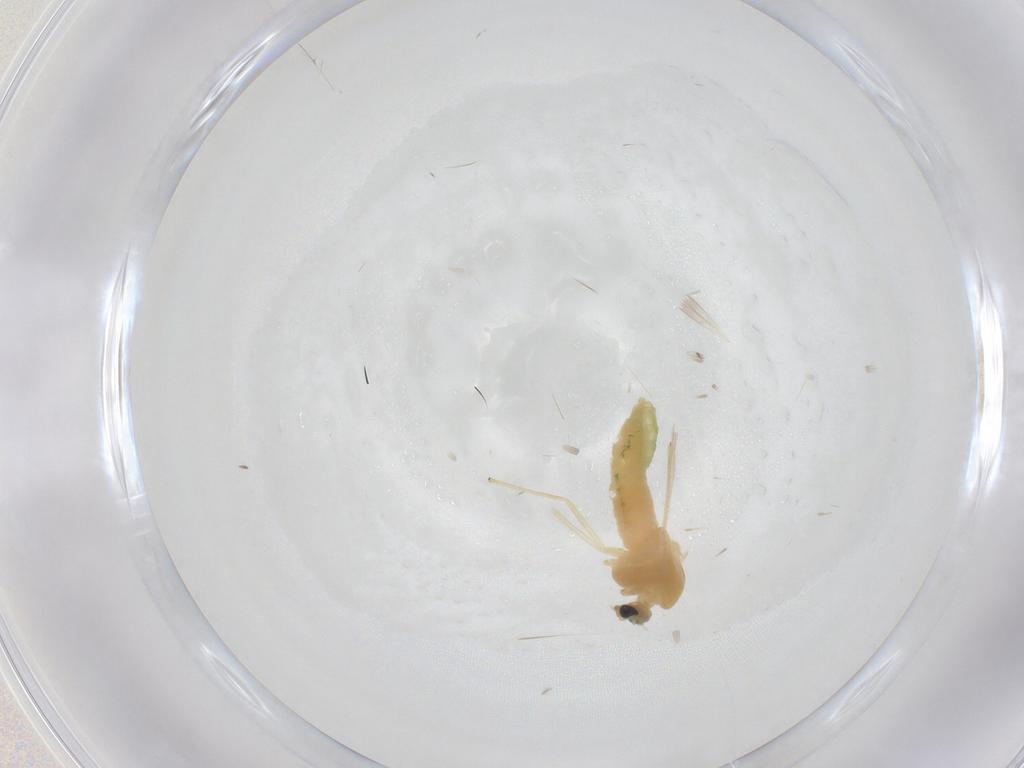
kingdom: Animalia
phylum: Arthropoda
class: Insecta
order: Diptera
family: Chironomidae
